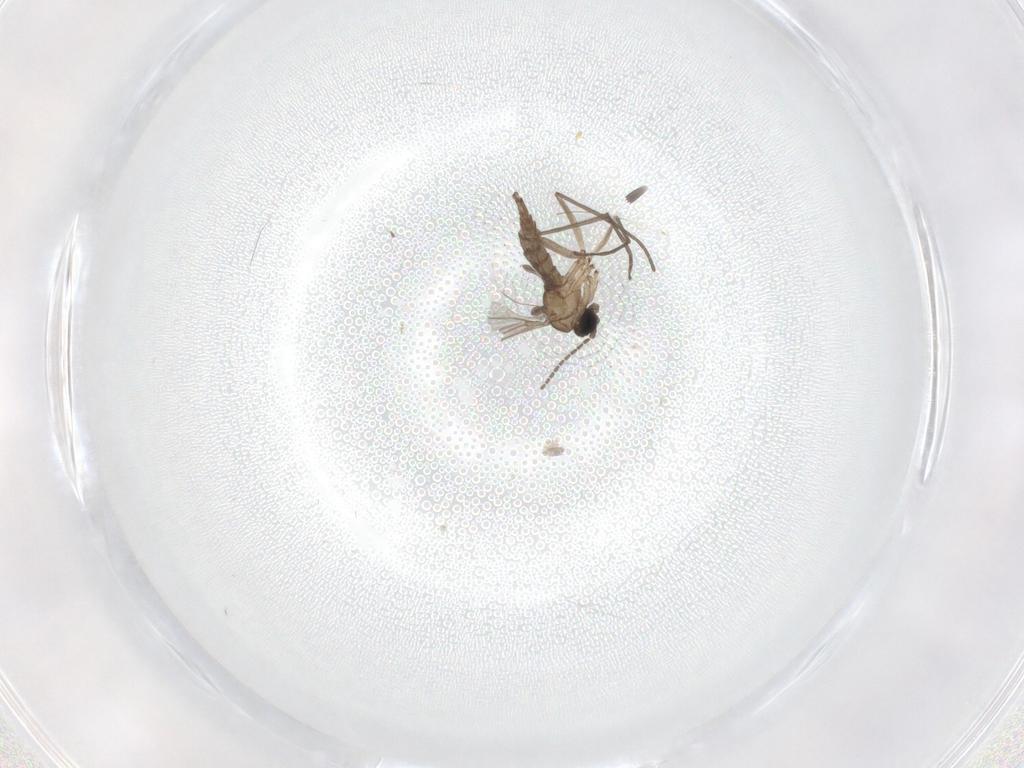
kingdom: Animalia
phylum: Arthropoda
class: Insecta
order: Diptera
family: Sciaridae
